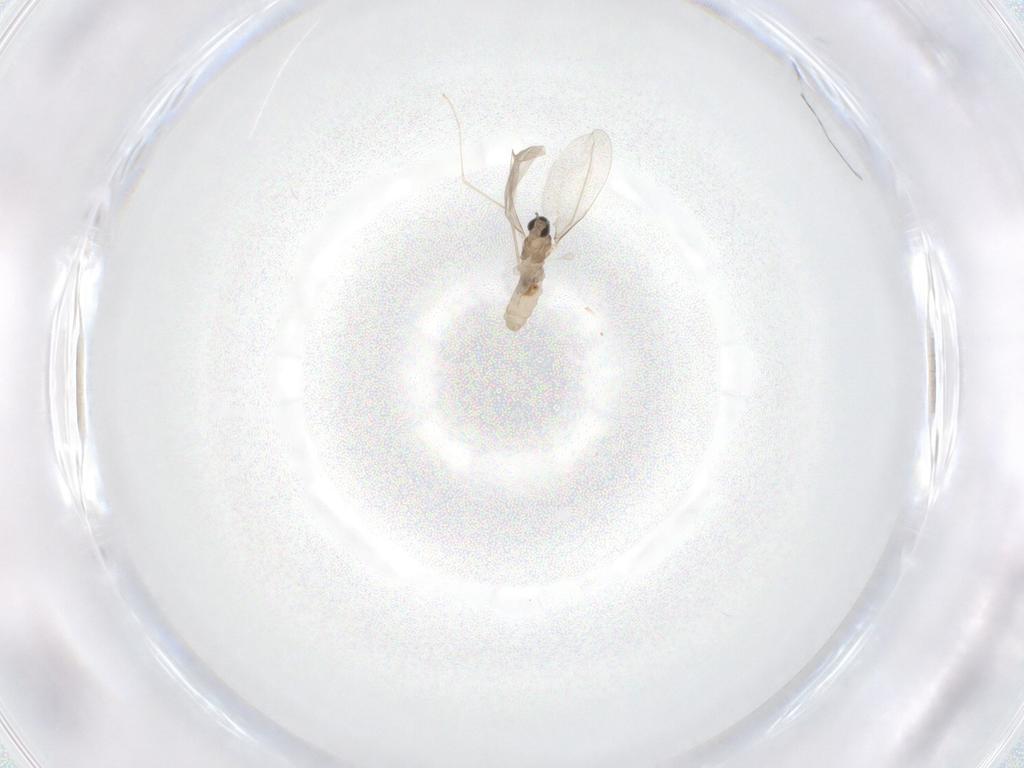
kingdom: Animalia
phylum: Arthropoda
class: Insecta
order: Diptera
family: Cecidomyiidae
